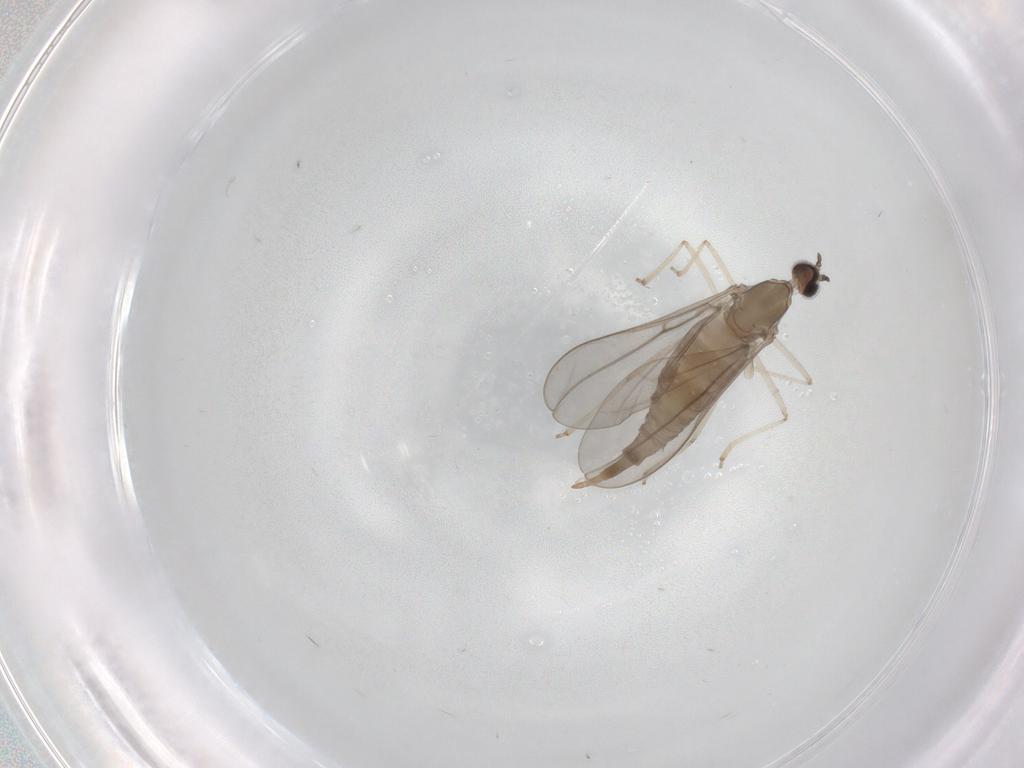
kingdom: Animalia
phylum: Arthropoda
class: Insecta
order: Diptera
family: Cecidomyiidae
